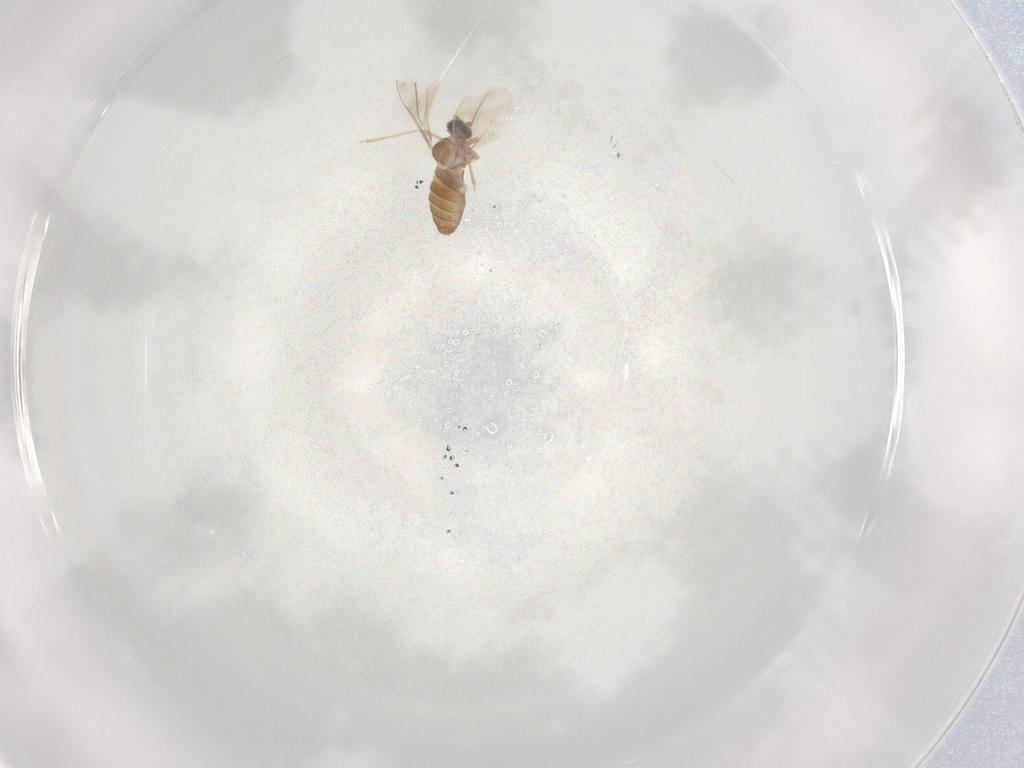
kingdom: Animalia
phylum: Arthropoda
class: Insecta
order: Diptera
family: Cecidomyiidae
